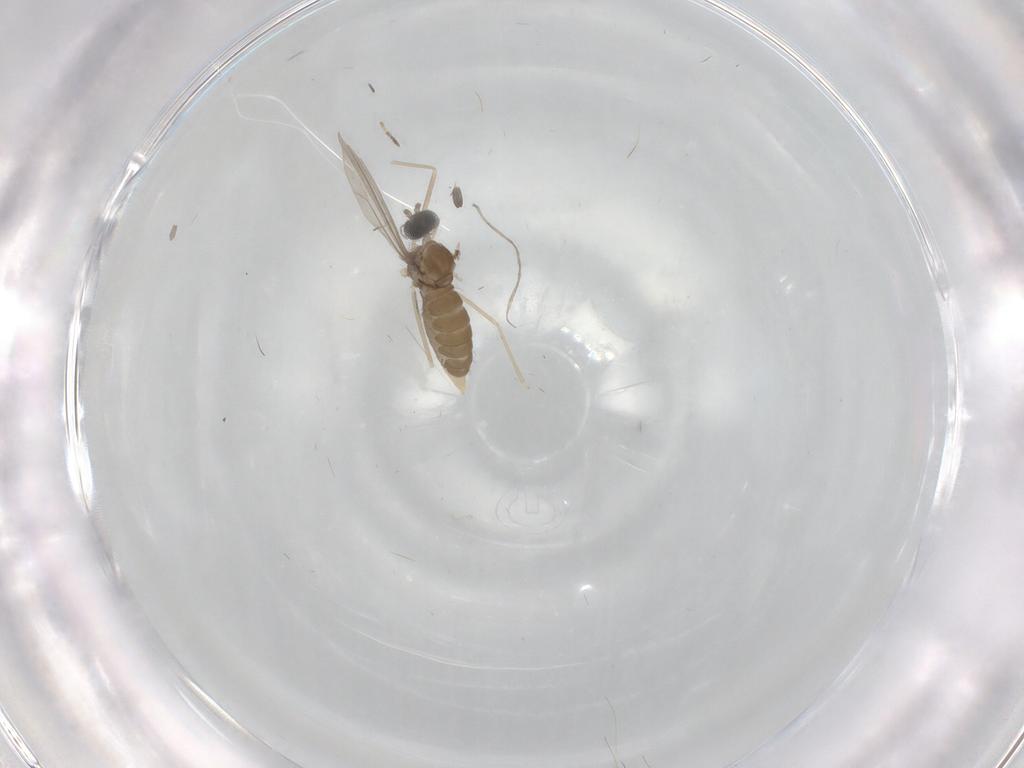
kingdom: Animalia
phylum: Arthropoda
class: Insecta
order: Diptera
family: Cecidomyiidae
